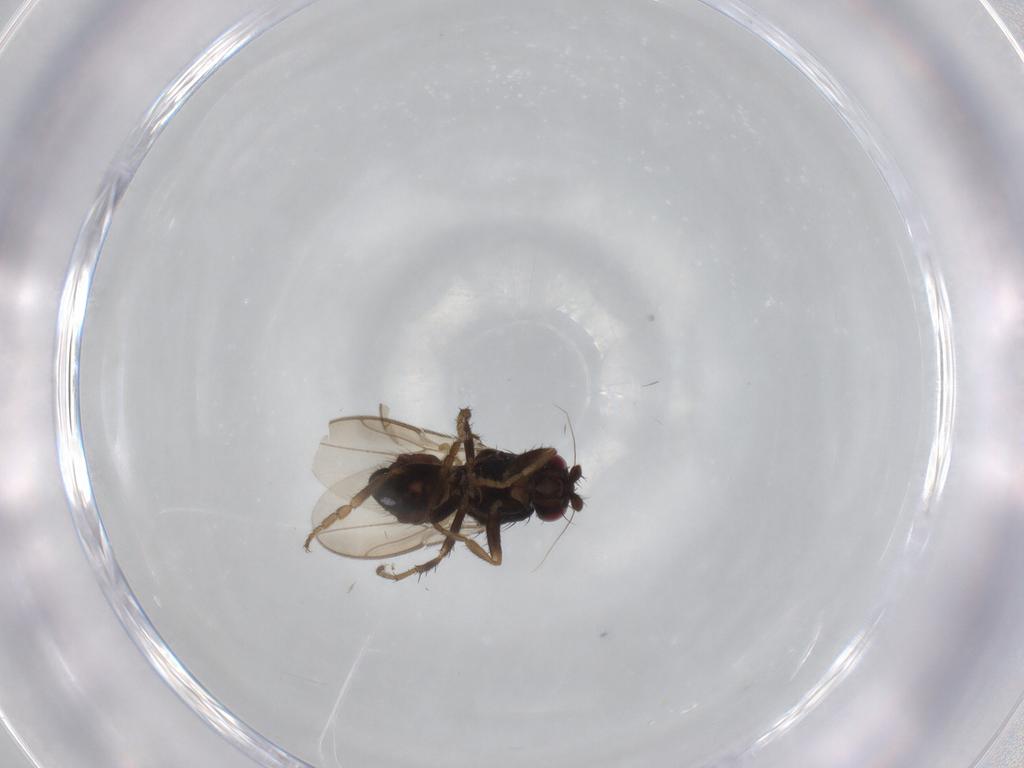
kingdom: Animalia
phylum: Arthropoda
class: Insecta
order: Diptera
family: Sphaeroceridae
